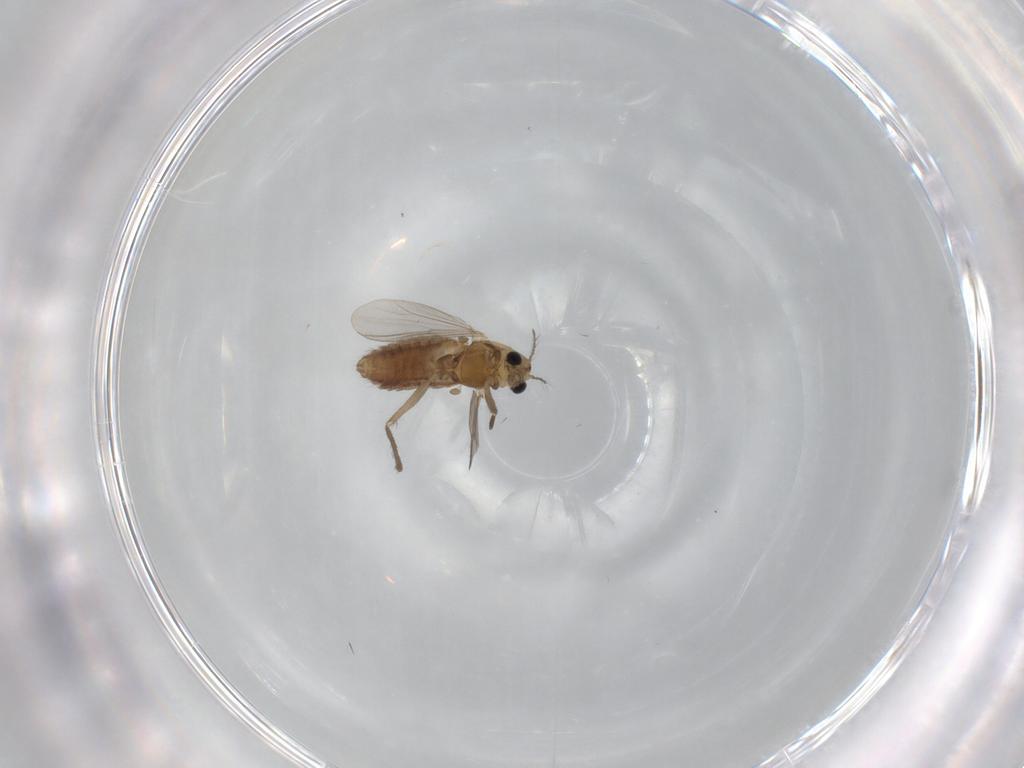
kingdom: Animalia
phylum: Arthropoda
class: Insecta
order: Diptera
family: Chironomidae
